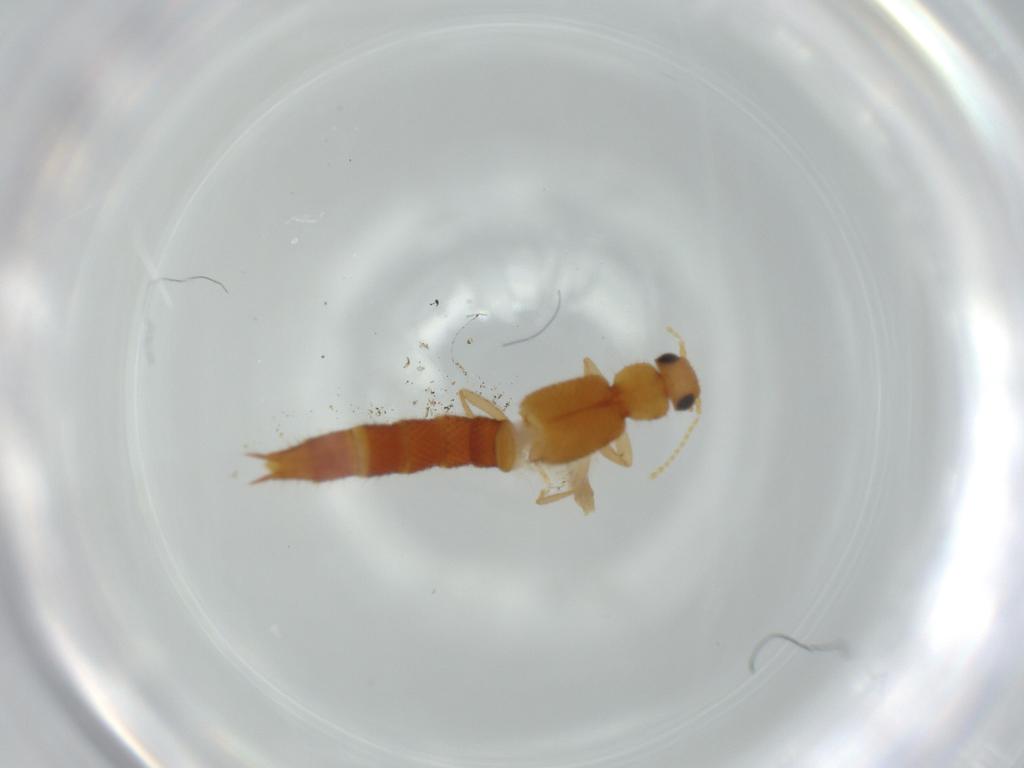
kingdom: Animalia
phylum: Arthropoda
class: Insecta
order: Coleoptera
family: Staphylinidae
